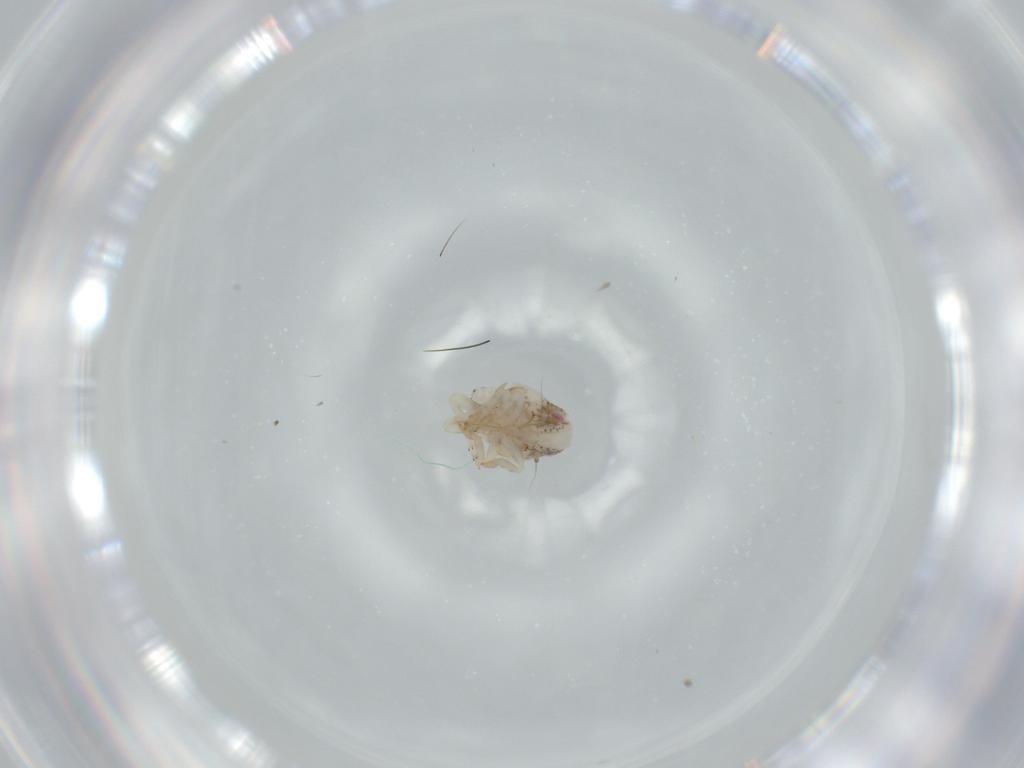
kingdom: Animalia
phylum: Arthropoda
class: Insecta
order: Hemiptera
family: Acanaloniidae
